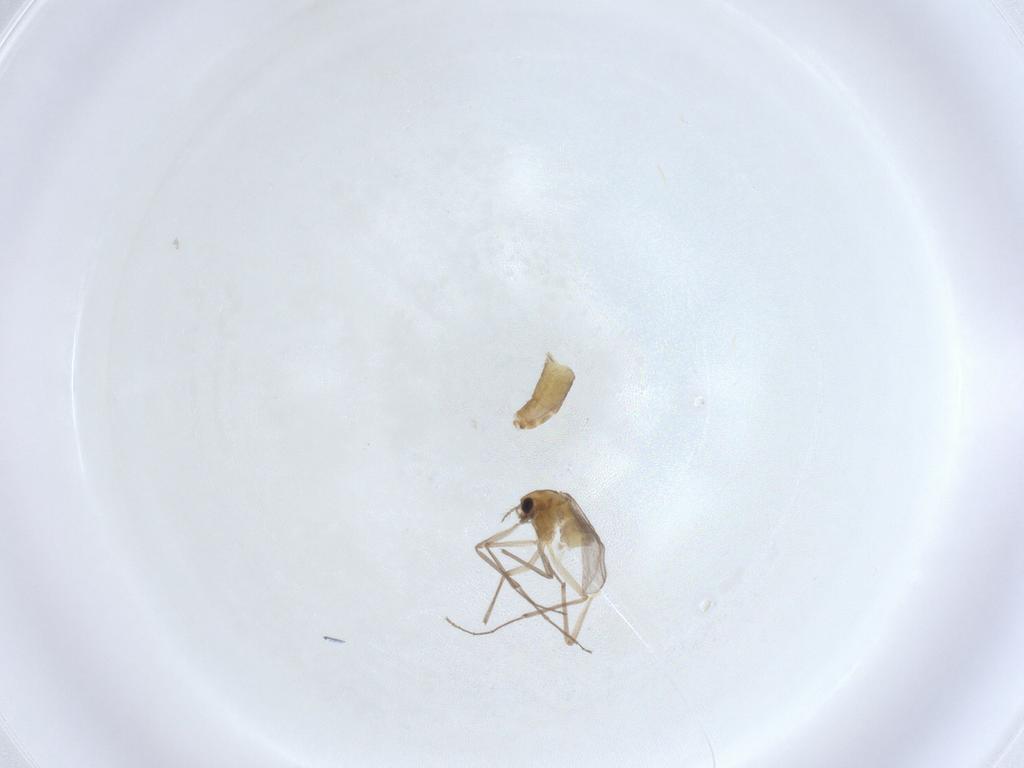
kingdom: Animalia
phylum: Arthropoda
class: Insecta
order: Diptera
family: Chironomidae
